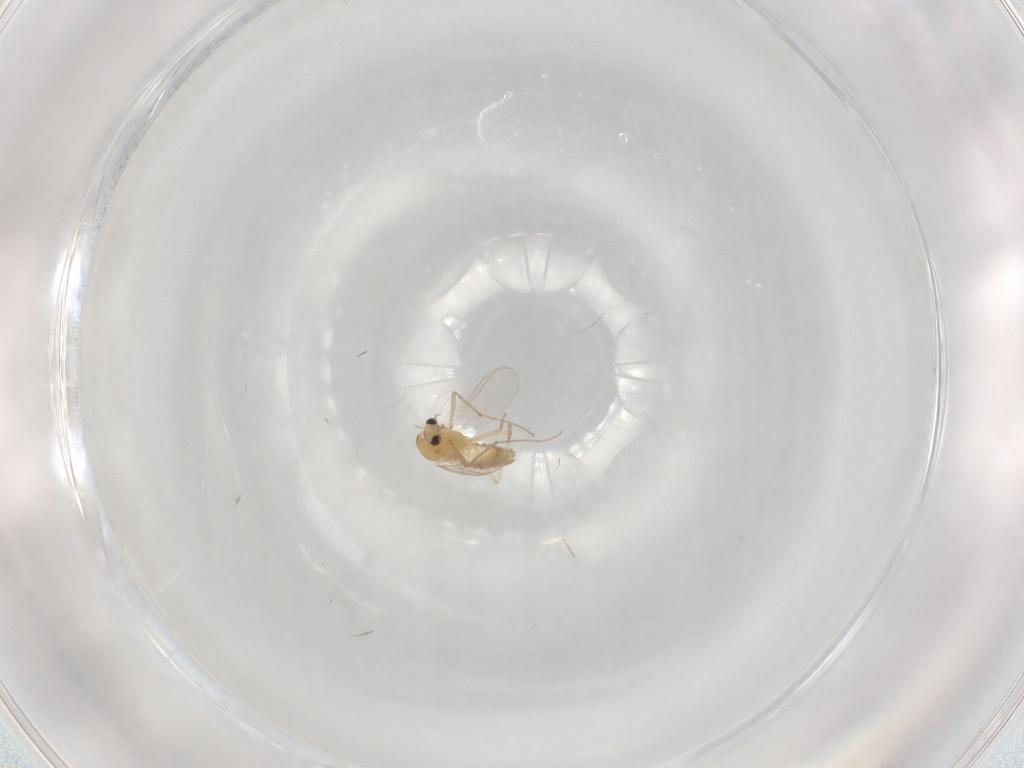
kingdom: Animalia
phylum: Arthropoda
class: Insecta
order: Diptera
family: Chironomidae
